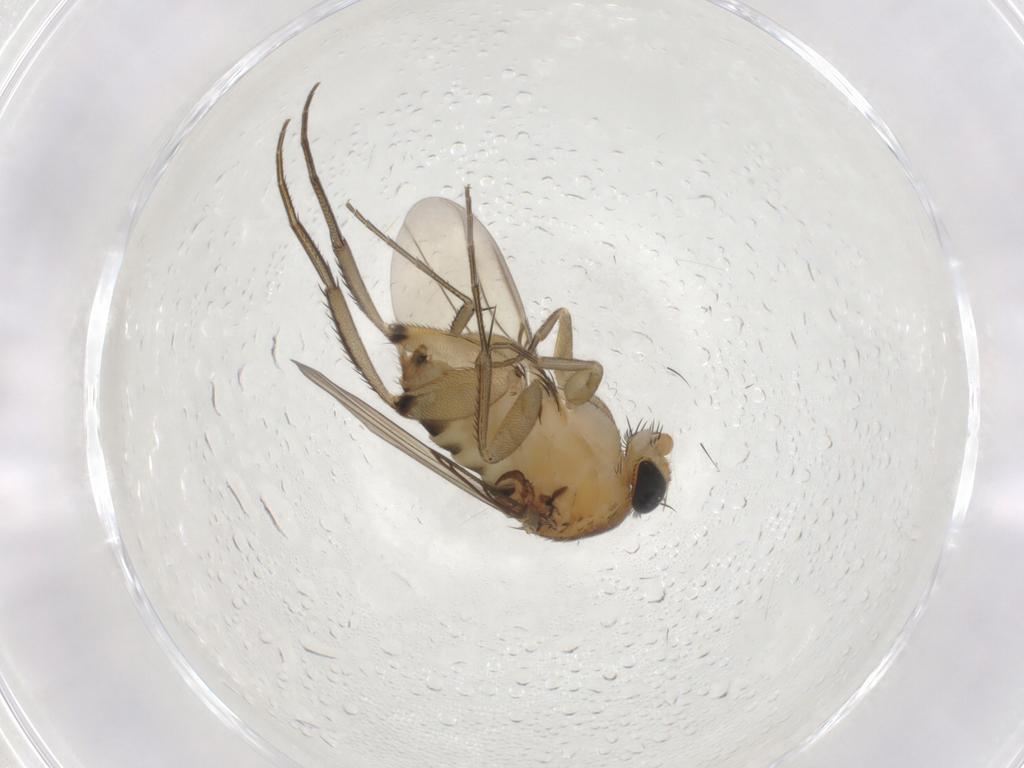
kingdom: Animalia
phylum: Arthropoda
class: Insecta
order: Diptera
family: Phoridae
